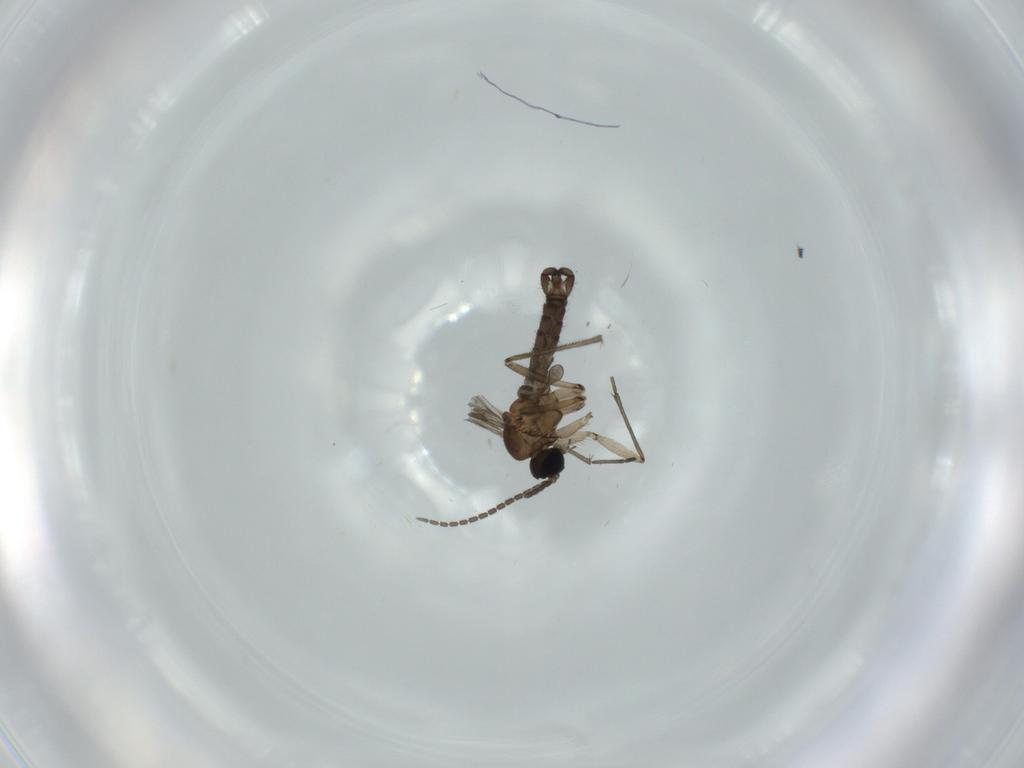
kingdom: Animalia
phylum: Arthropoda
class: Insecta
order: Diptera
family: Sciaridae
